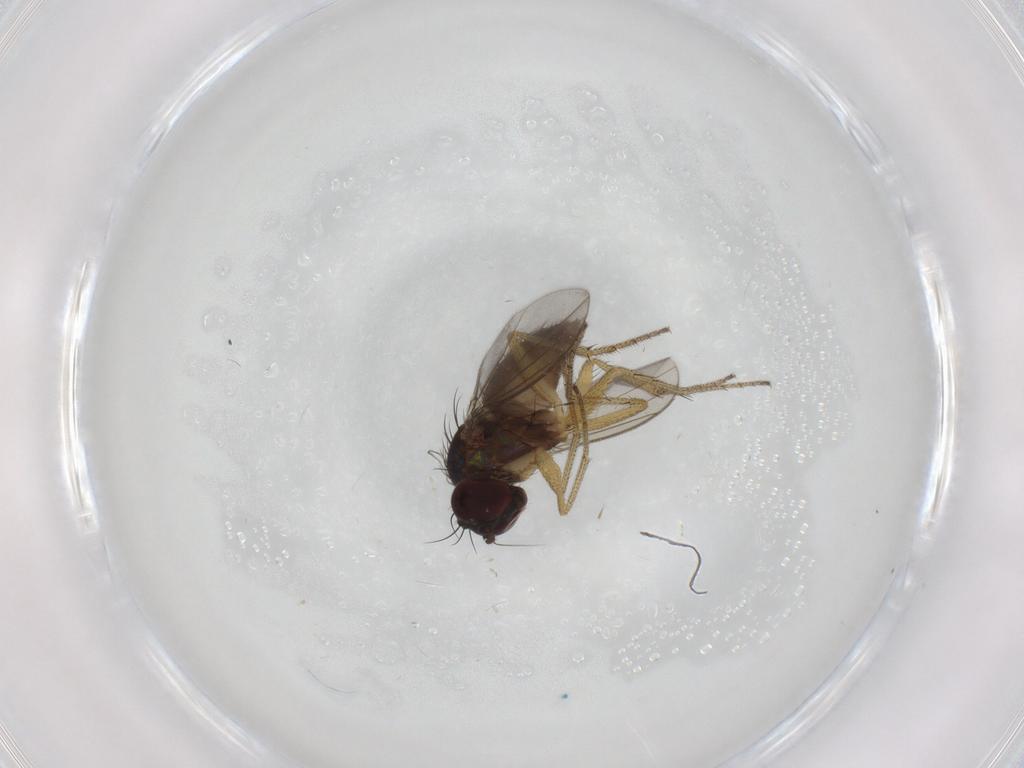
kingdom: Animalia
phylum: Arthropoda
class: Insecta
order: Diptera
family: Dolichopodidae
